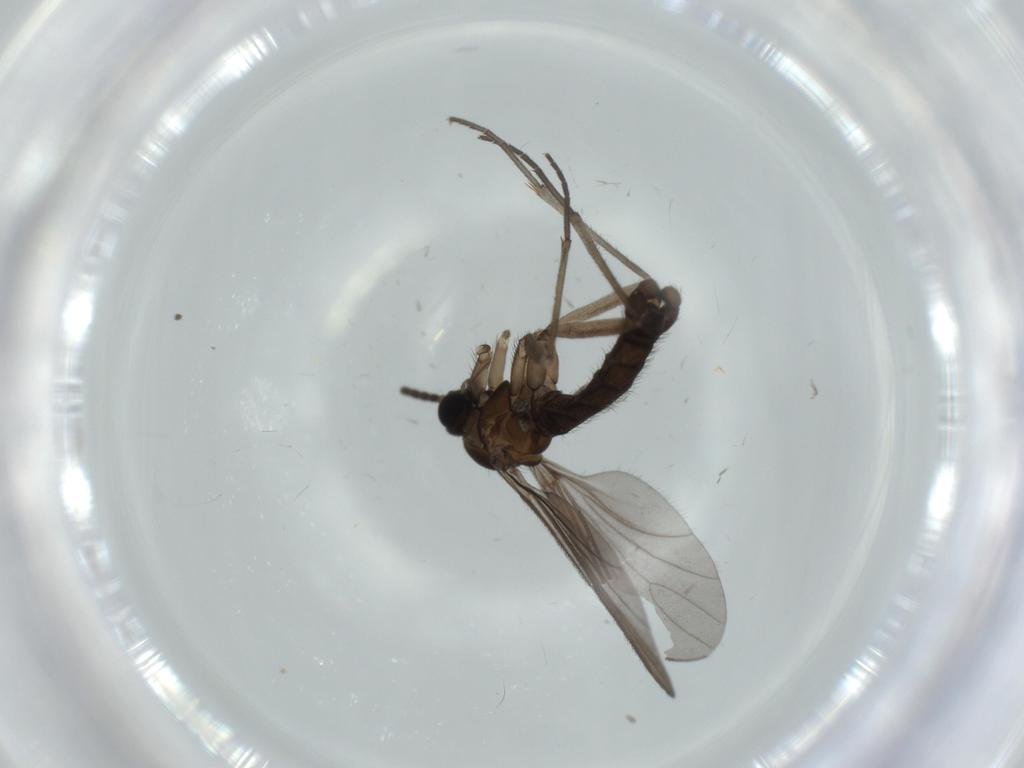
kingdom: Animalia
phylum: Arthropoda
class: Insecta
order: Diptera
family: Sciaridae
